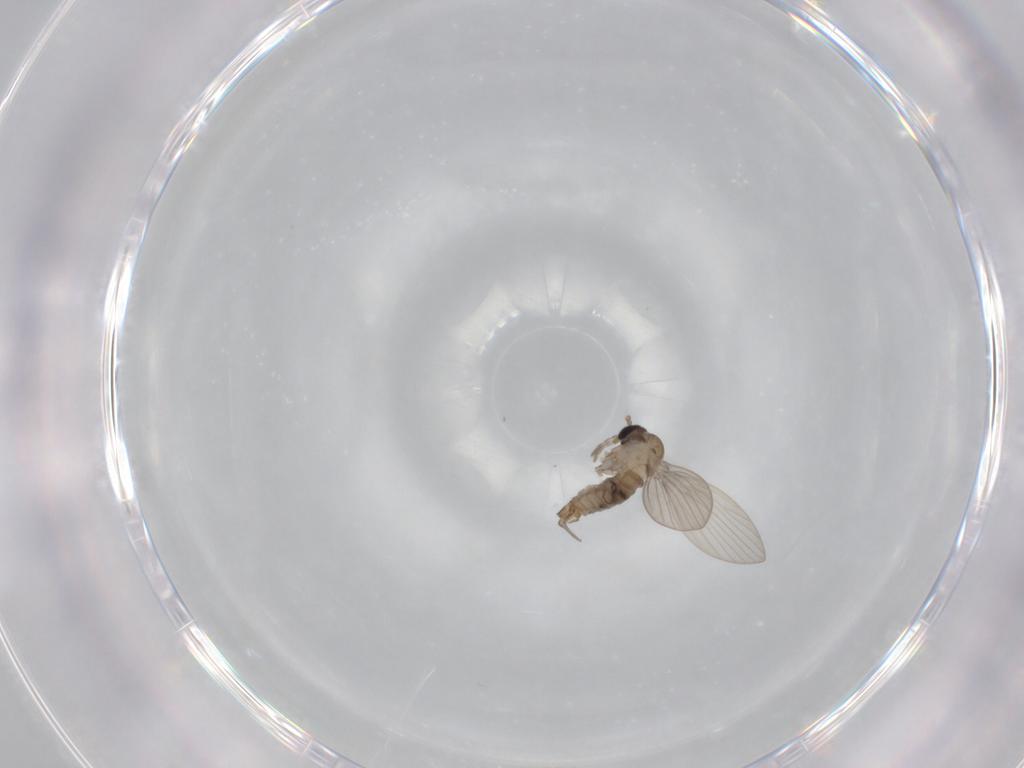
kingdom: Animalia
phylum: Arthropoda
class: Insecta
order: Diptera
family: Psychodidae
